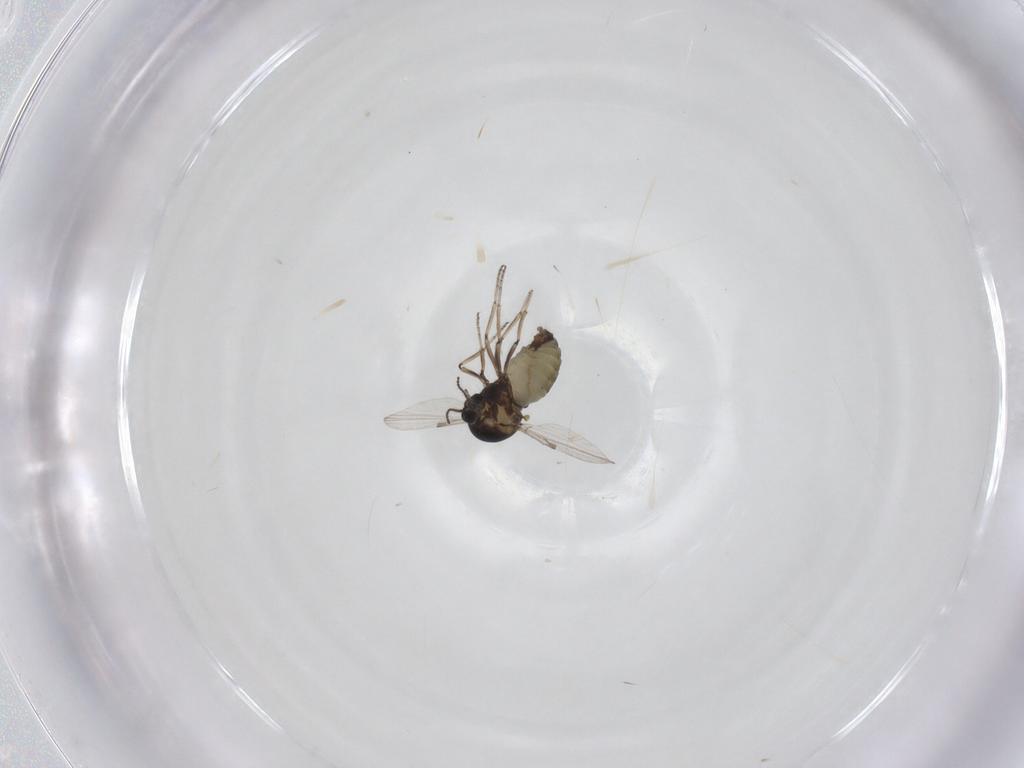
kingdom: Animalia
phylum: Arthropoda
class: Insecta
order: Diptera
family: Ceratopogonidae
